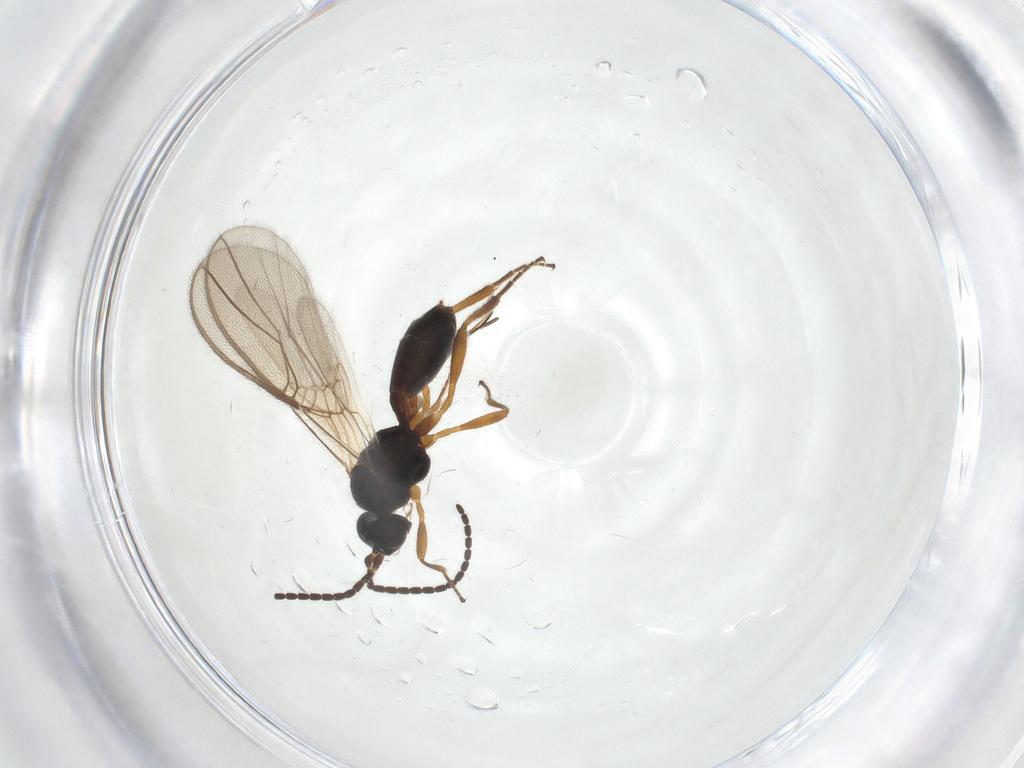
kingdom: Animalia
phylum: Arthropoda
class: Insecta
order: Hymenoptera
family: Braconidae
